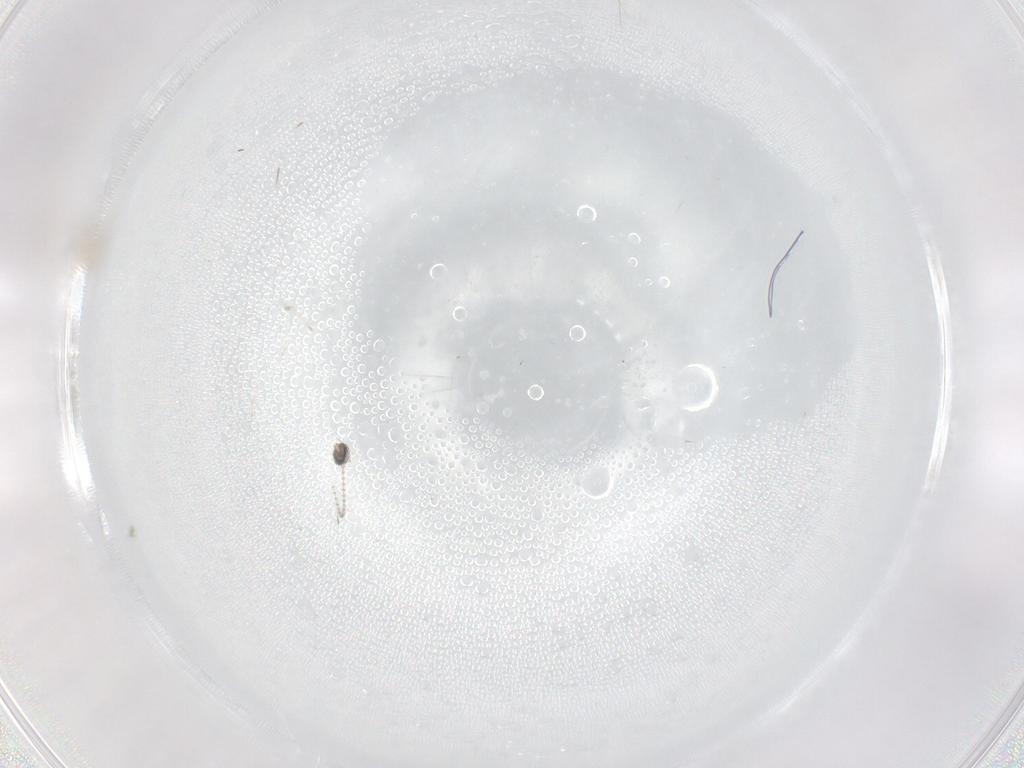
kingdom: Animalia
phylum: Arthropoda
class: Insecta
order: Diptera
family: Cecidomyiidae
